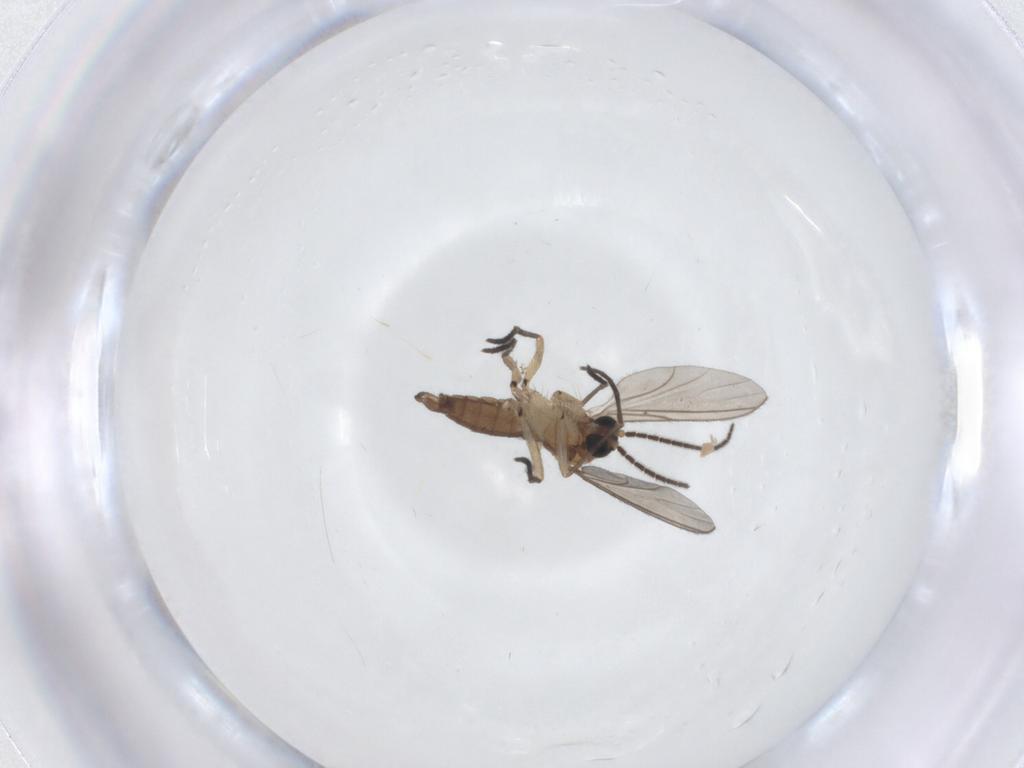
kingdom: Animalia
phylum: Arthropoda
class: Insecta
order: Diptera
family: Sciaridae
